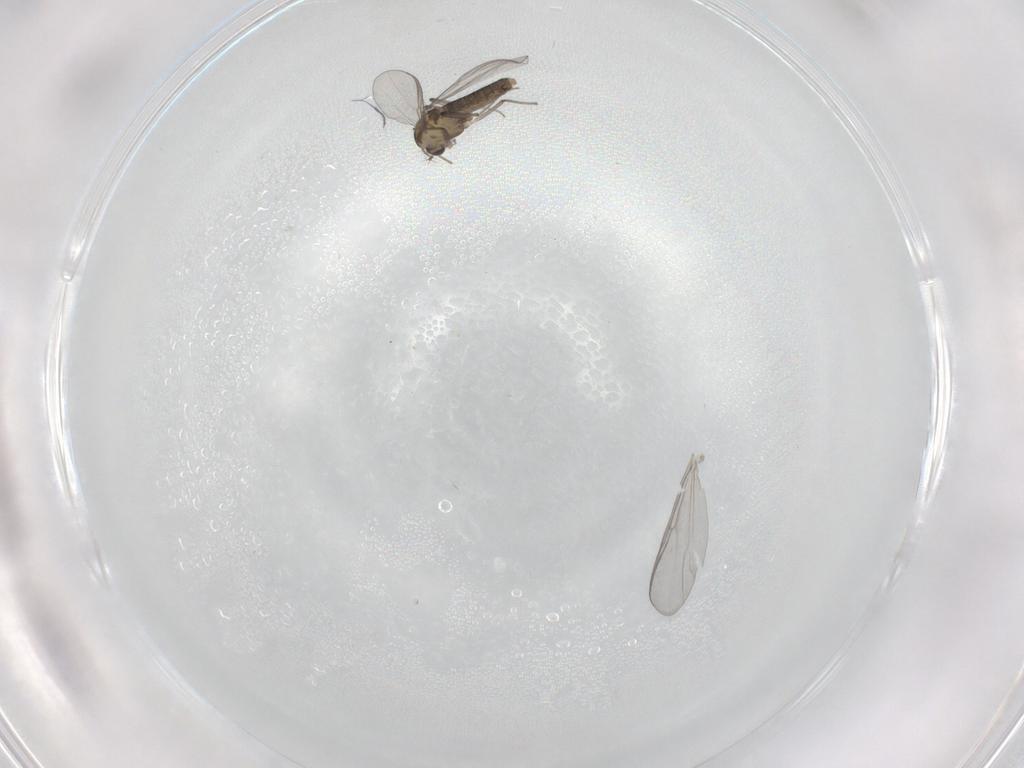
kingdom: Animalia
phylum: Arthropoda
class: Insecta
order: Diptera
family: Chironomidae
